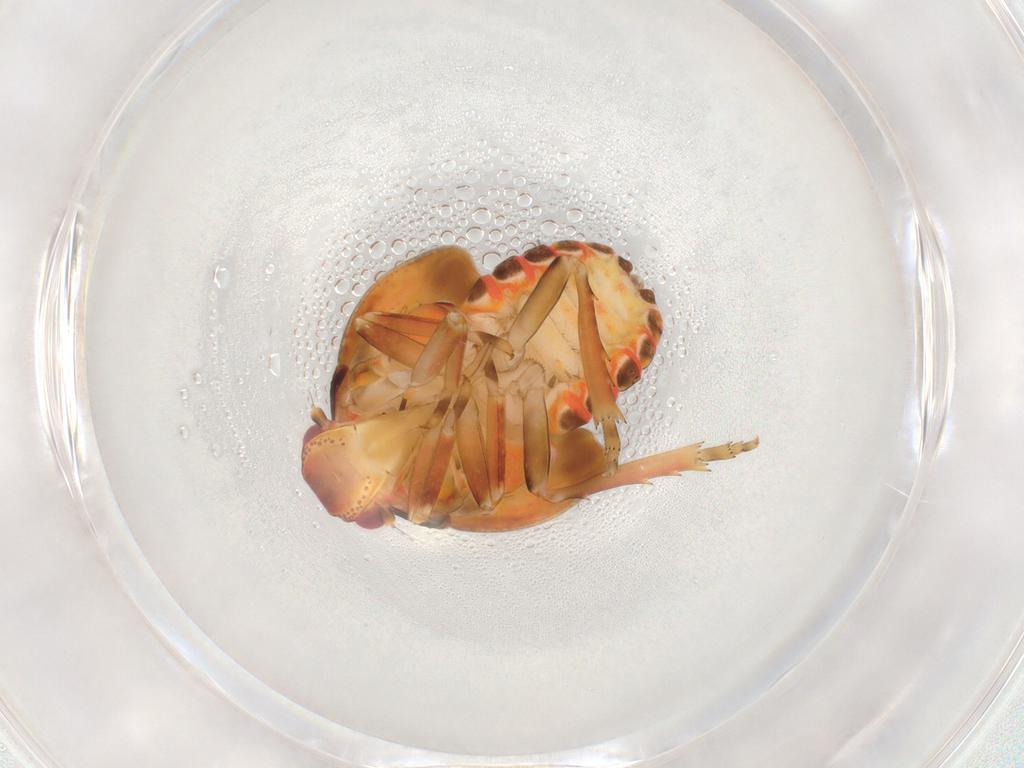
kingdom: Animalia
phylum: Arthropoda
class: Insecta
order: Hemiptera
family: Flatidae
